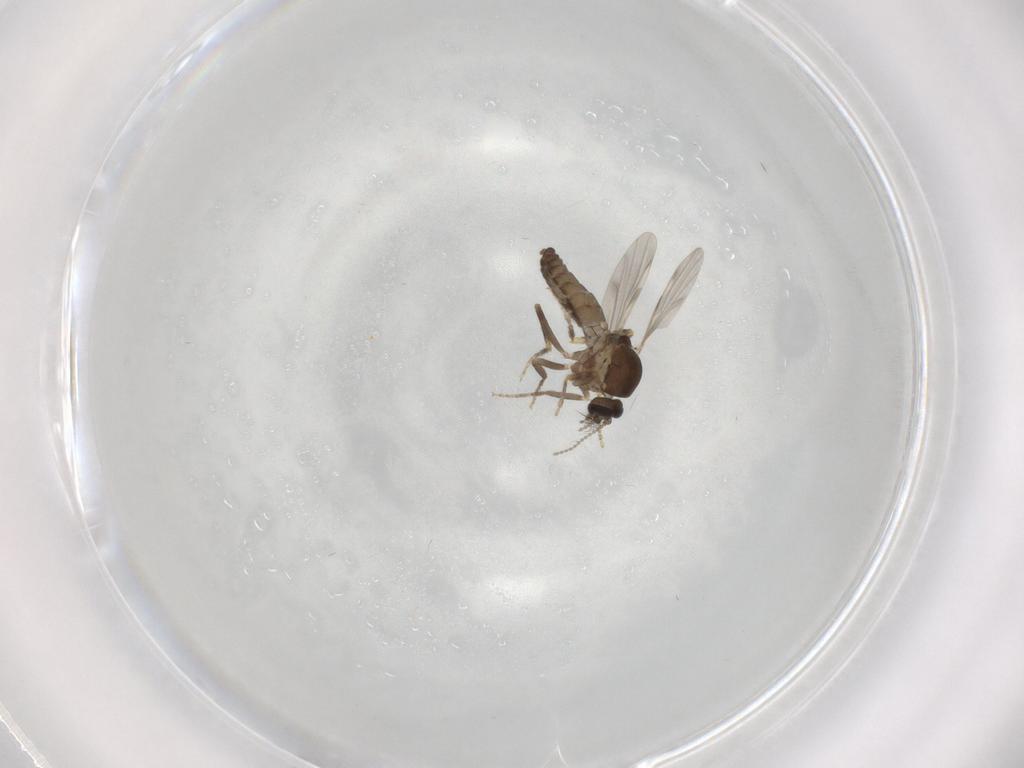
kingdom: Animalia
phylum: Arthropoda
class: Insecta
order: Diptera
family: Ceratopogonidae
